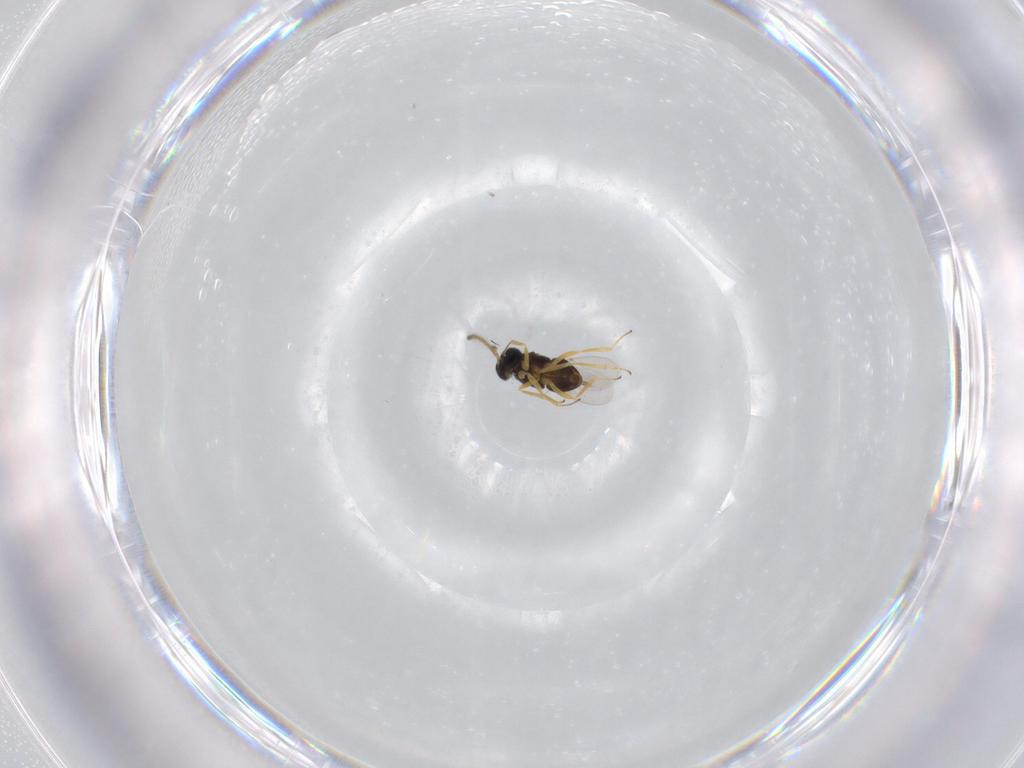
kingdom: Animalia
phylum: Arthropoda
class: Insecta
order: Hymenoptera
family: Encyrtidae
